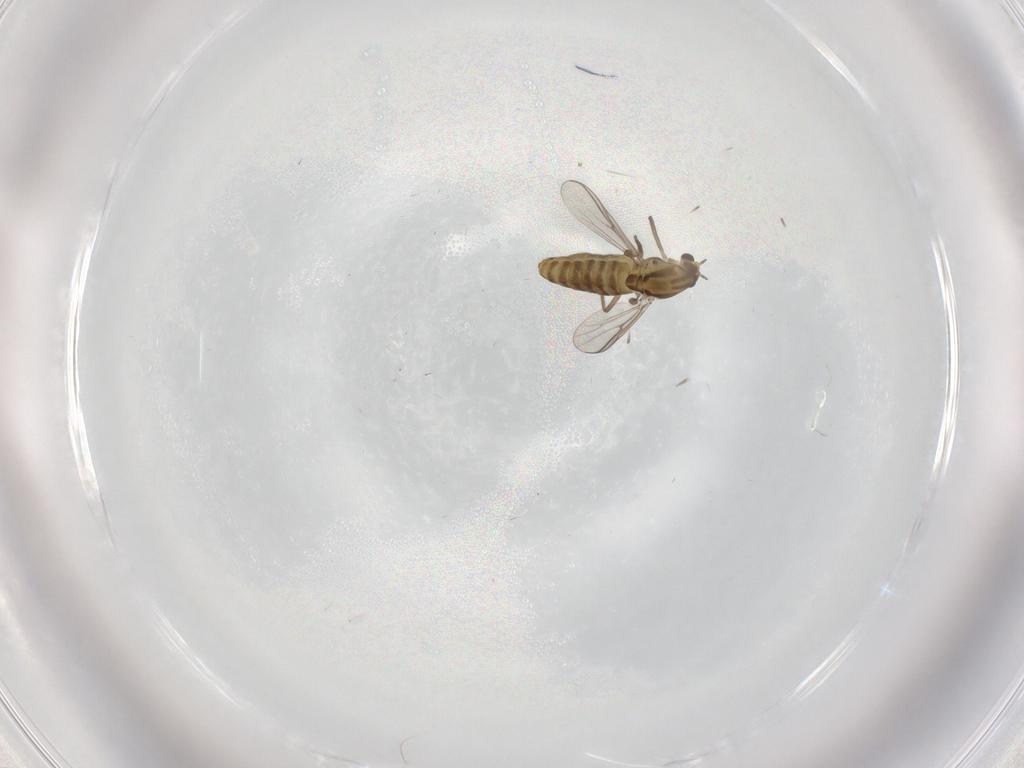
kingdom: Animalia
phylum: Arthropoda
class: Insecta
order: Diptera
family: Chironomidae
